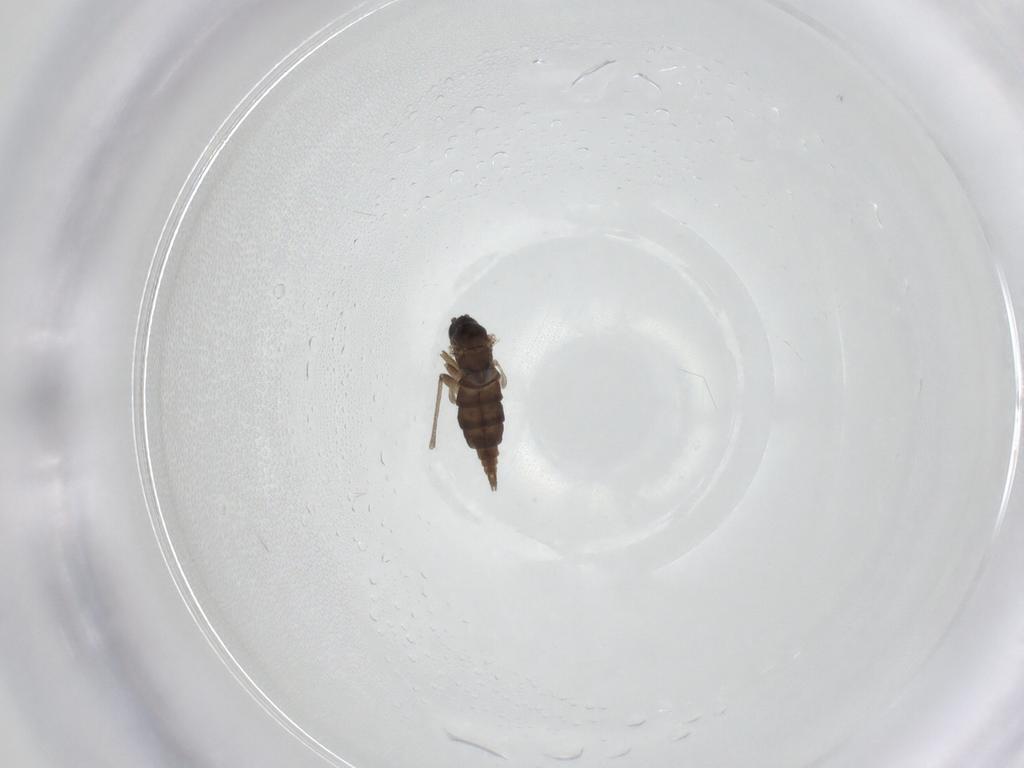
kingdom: Animalia
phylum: Arthropoda
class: Insecta
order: Diptera
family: Sciaridae
